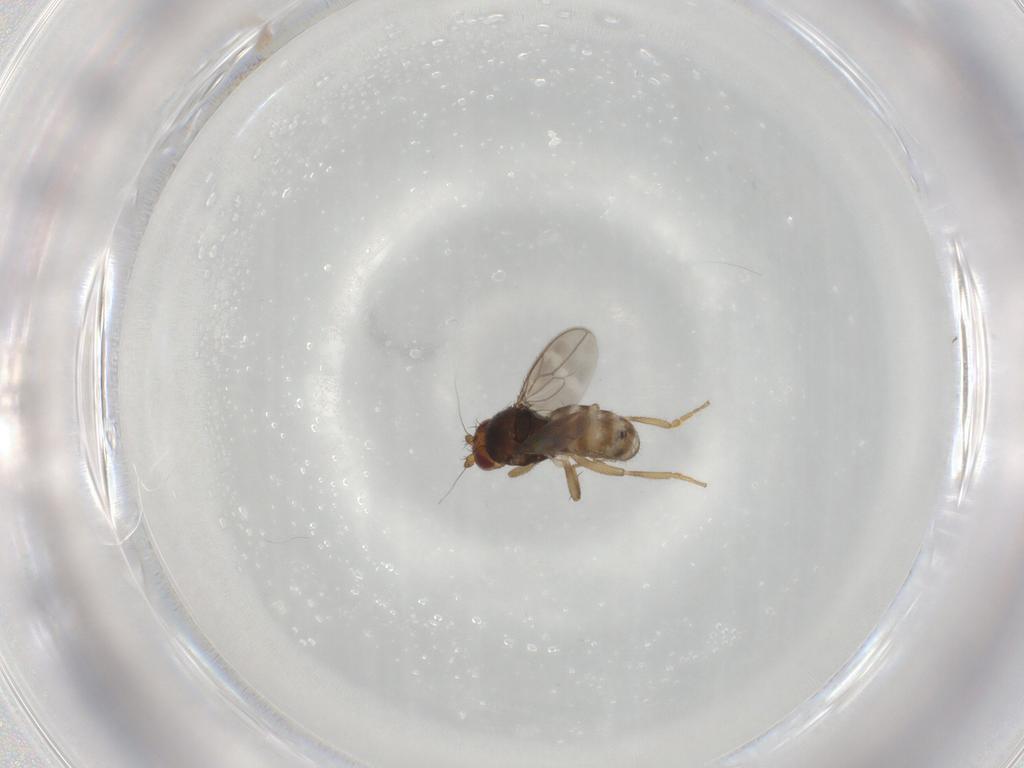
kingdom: Animalia
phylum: Arthropoda
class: Insecta
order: Diptera
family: Sphaeroceridae
